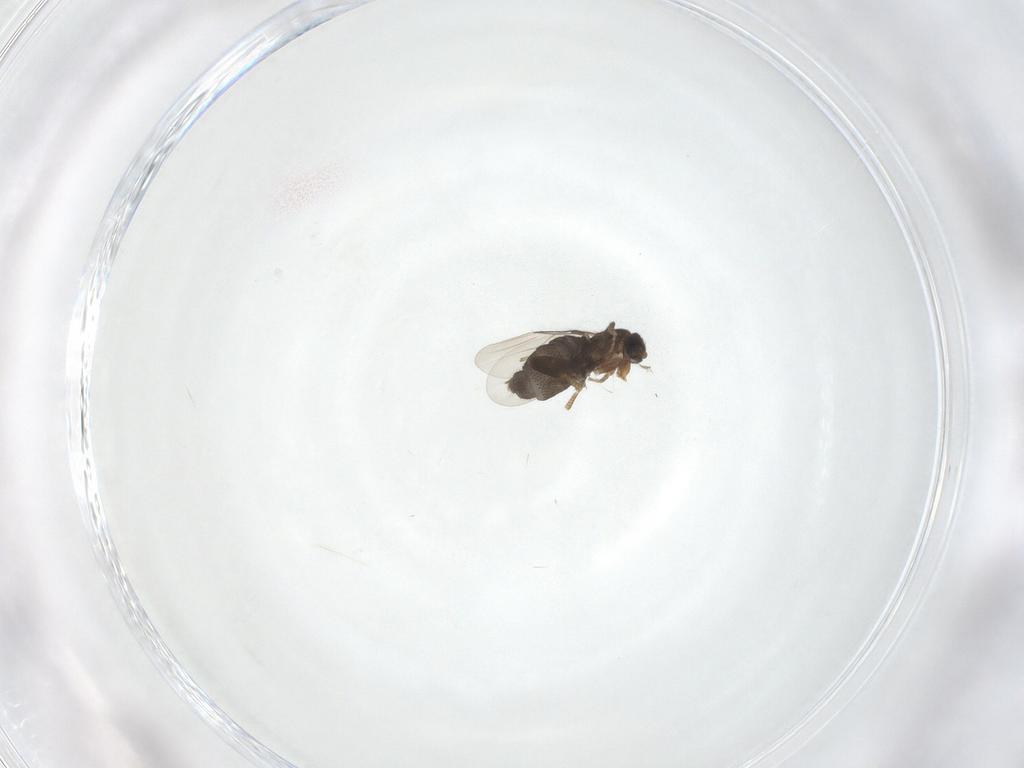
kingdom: Animalia
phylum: Arthropoda
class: Insecta
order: Diptera
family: Phoridae
